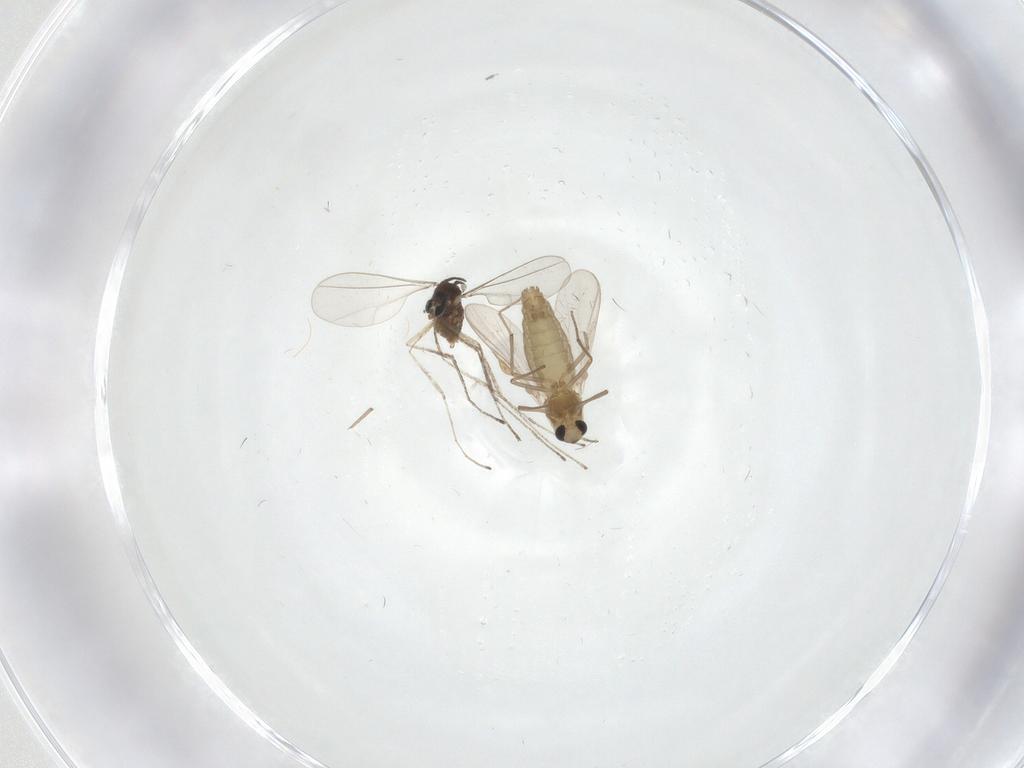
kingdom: Animalia
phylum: Arthropoda
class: Insecta
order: Diptera
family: Chironomidae
